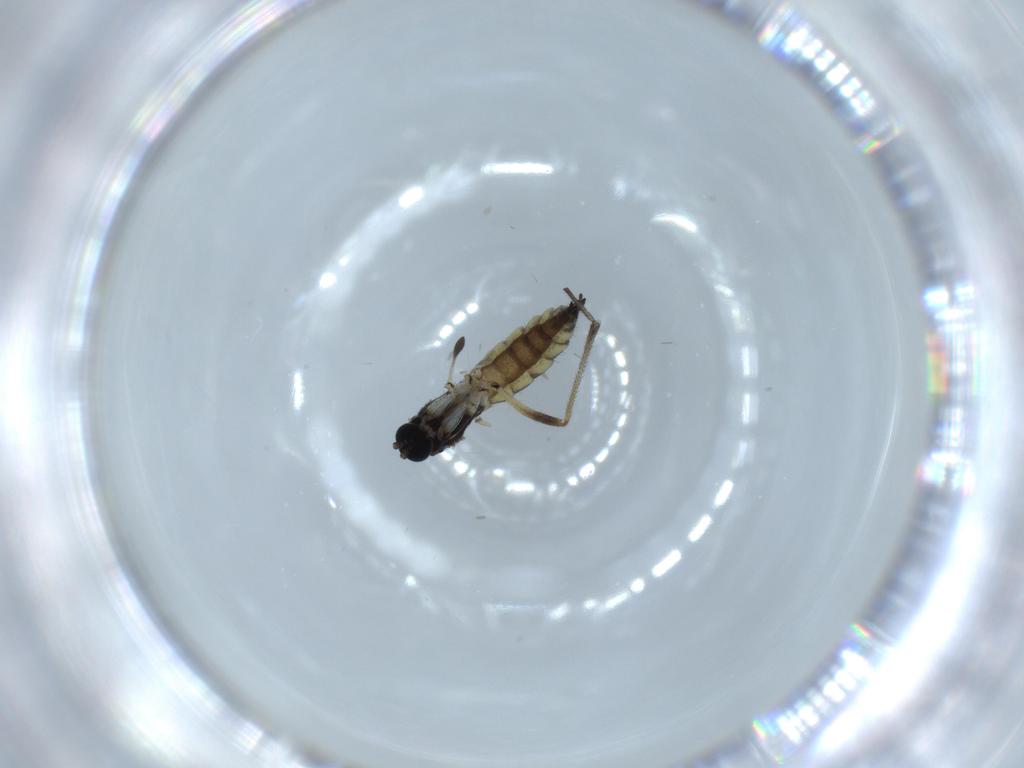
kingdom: Animalia
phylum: Arthropoda
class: Insecta
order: Diptera
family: Sciaridae
